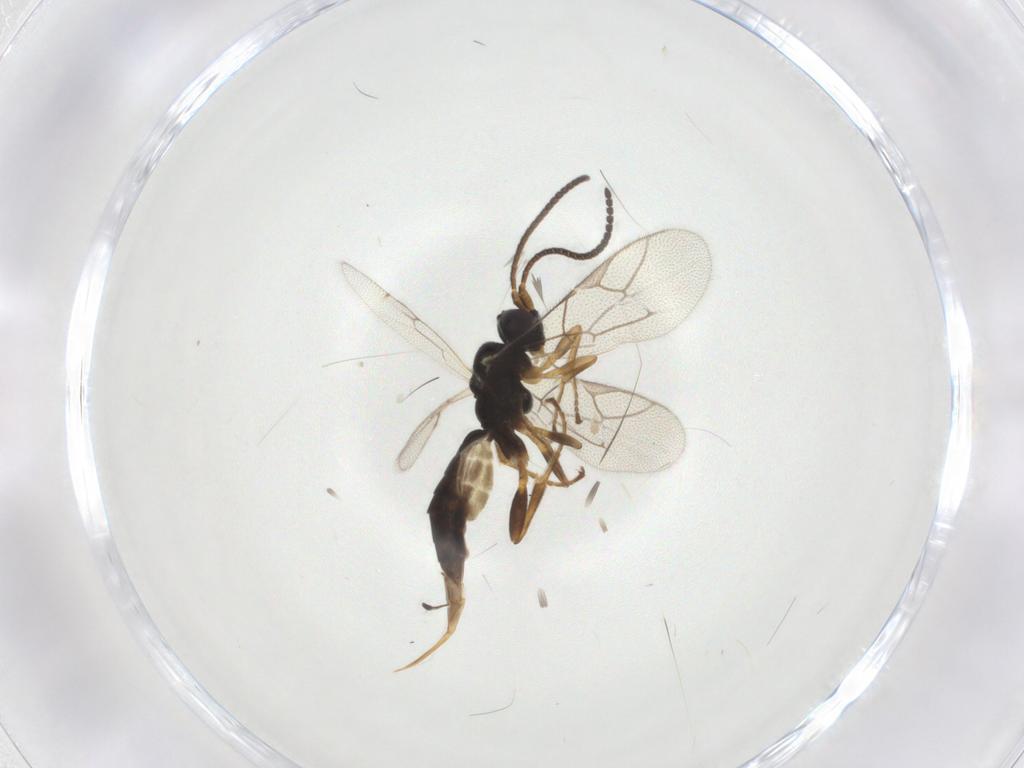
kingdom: Animalia
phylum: Arthropoda
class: Insecta
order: Hymenoptera
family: Ichneumonidae
